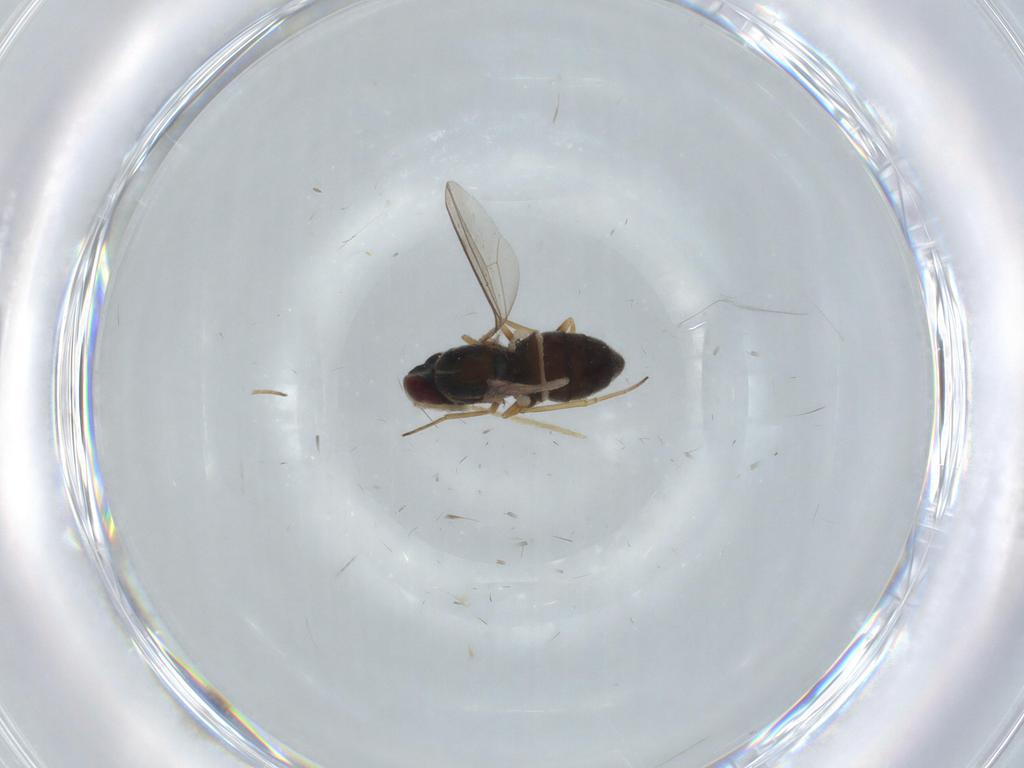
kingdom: Animalia
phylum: Arthropoda
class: Insecta
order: Diptera
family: Dolichopodidae
